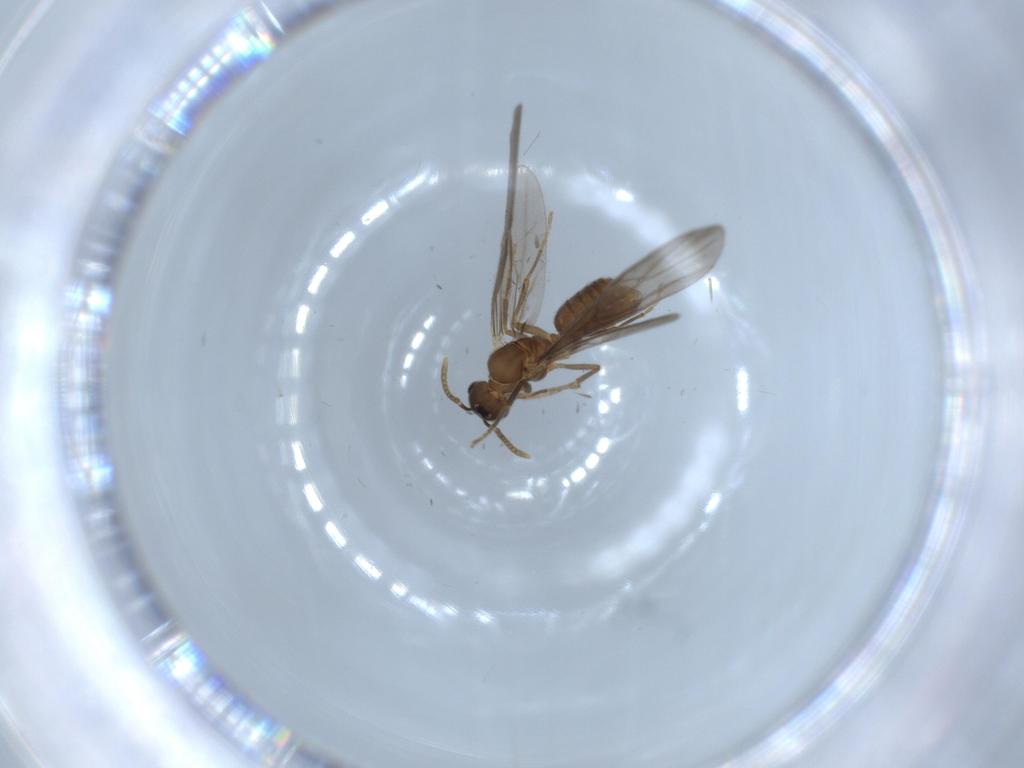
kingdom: Animalia
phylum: Arthropoda
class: Insecta
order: Hymenoptera
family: Formicidae
